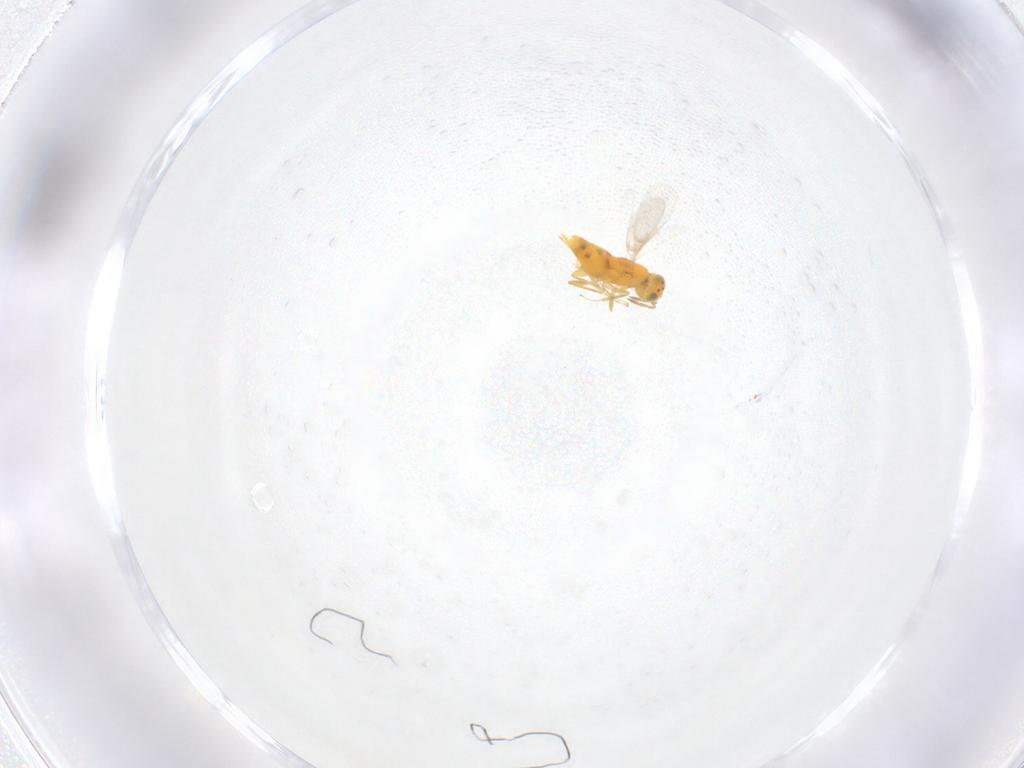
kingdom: Animalia
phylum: Arthropoda
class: Insecta
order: Hymenoptera
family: Aphelinidae
